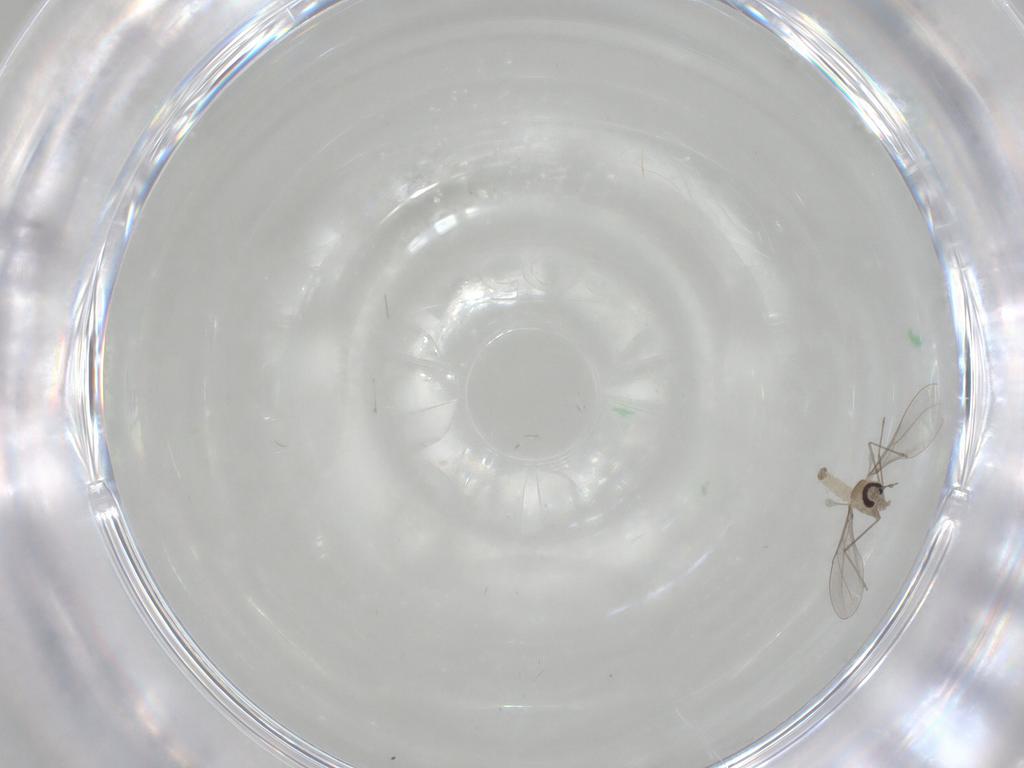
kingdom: Animalia
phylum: Arthropoda
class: Insecta
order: Diptera
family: Cecidomyiidae
